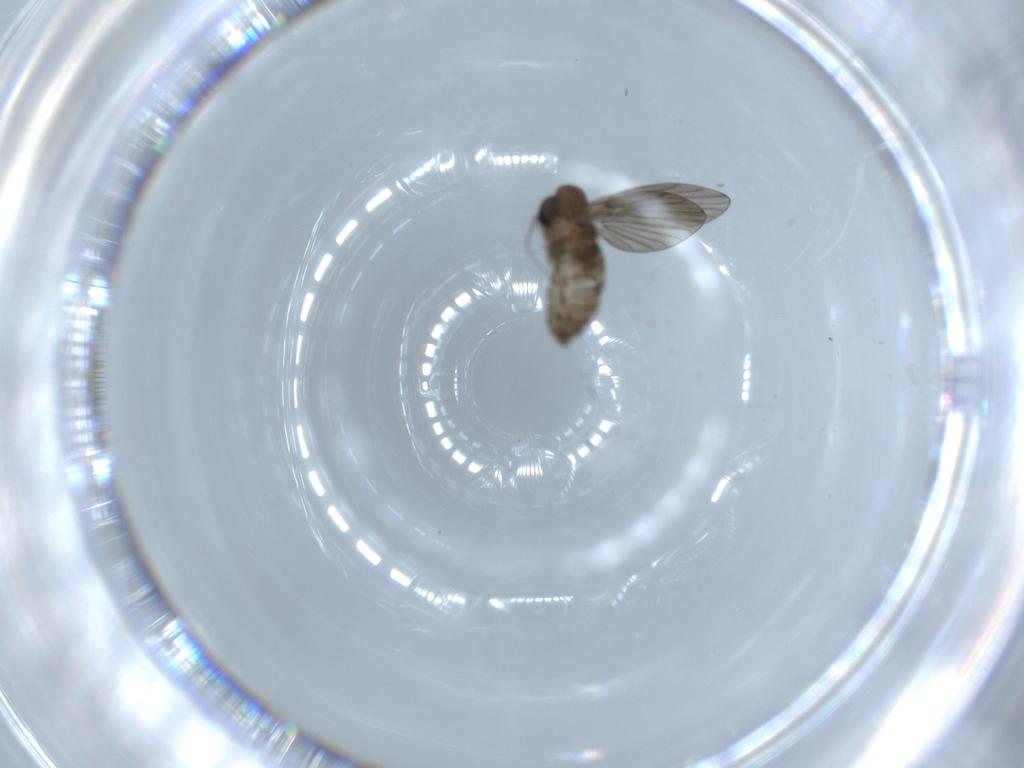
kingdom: Animalia
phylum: Arthropoda
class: Insecta
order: Diptera
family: Psychodidae
